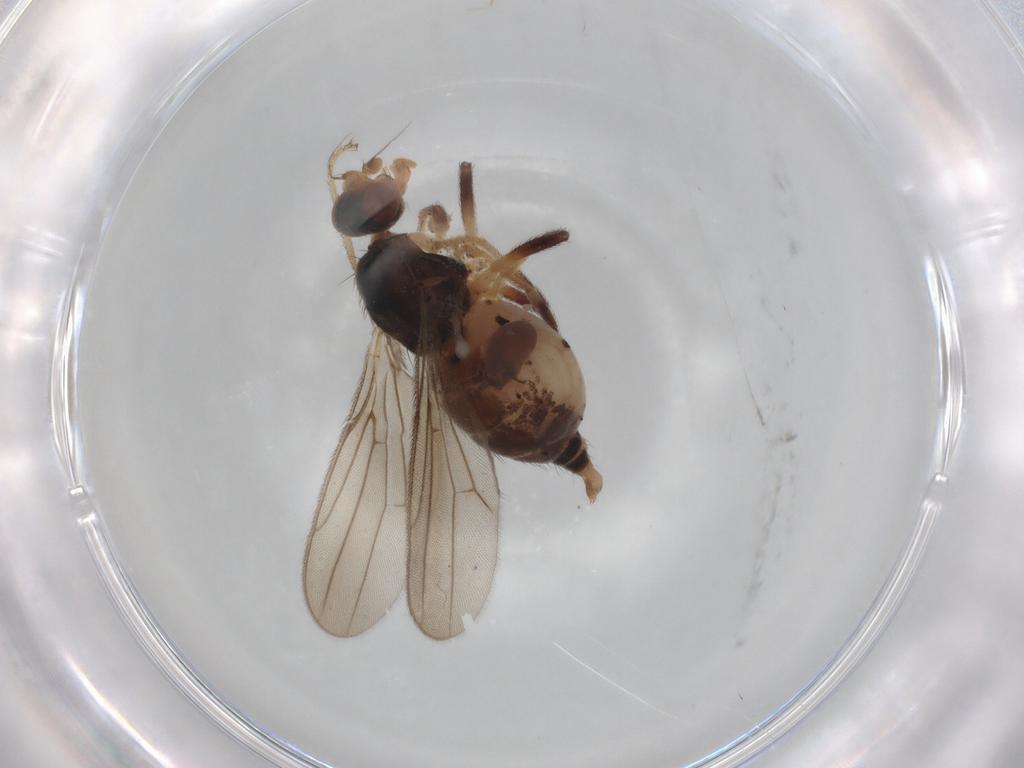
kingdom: Animalia
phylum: Arthropoda
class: Insecta
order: Diptera
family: Chloropidae
